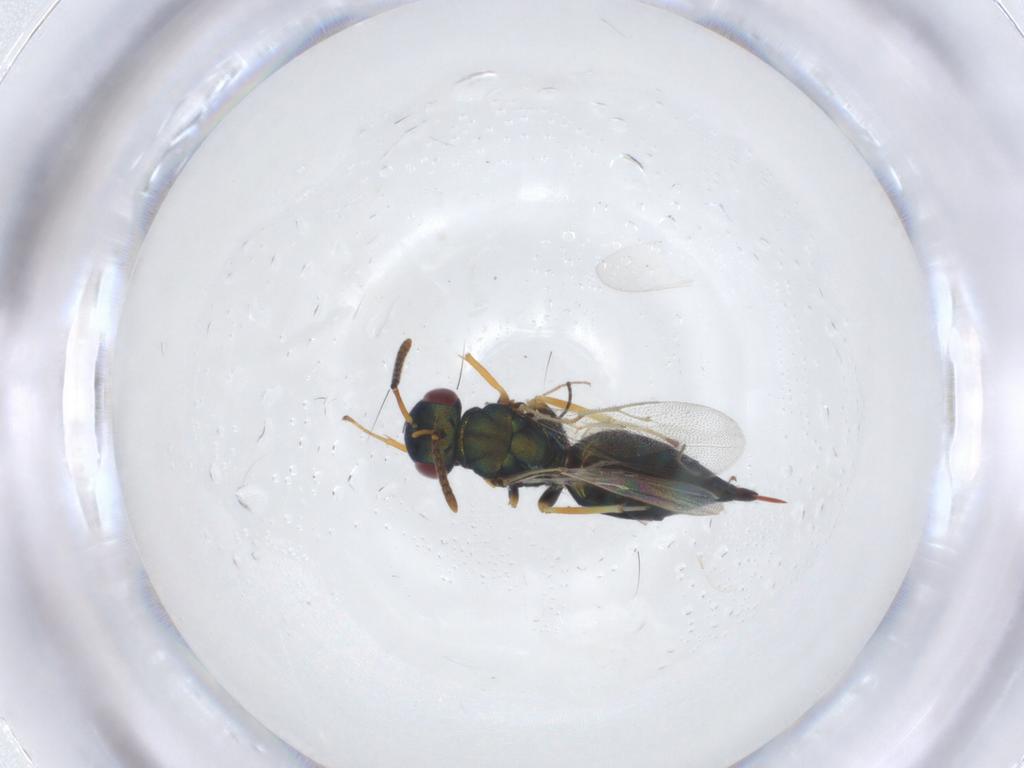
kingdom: Animalia
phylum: Arthropoda
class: Insecta
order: Hymenoptera
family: Pteromalidae
